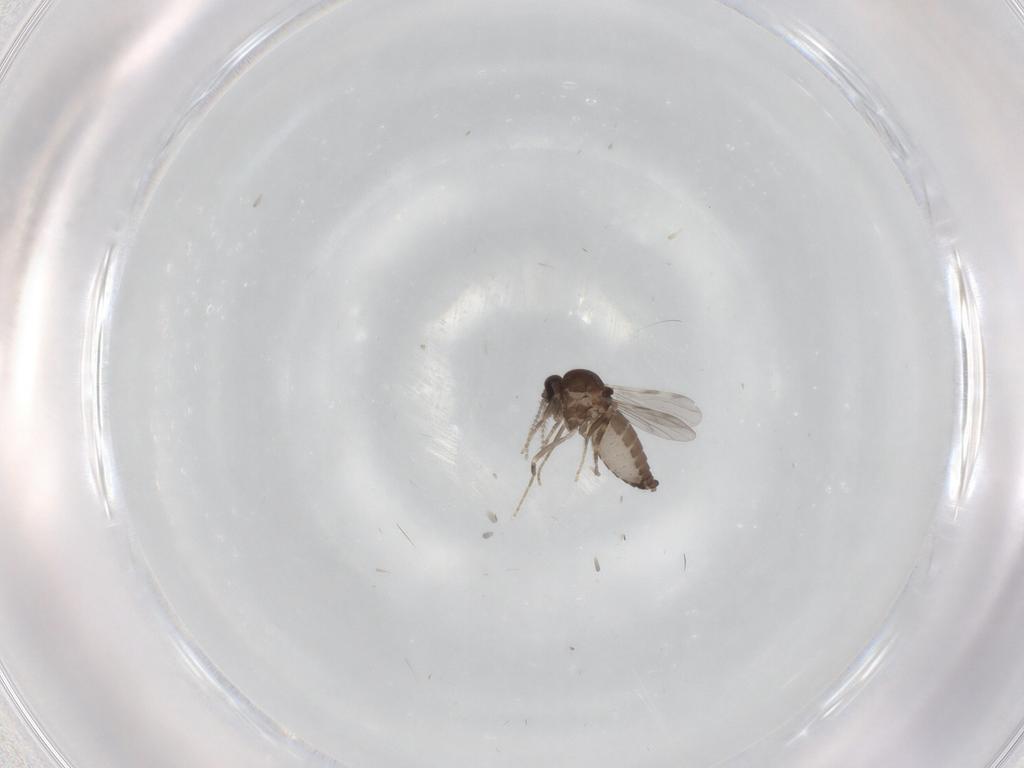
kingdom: Animalia
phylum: Arthropoda
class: Insecta
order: Diptera
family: Ceratopogonidae
